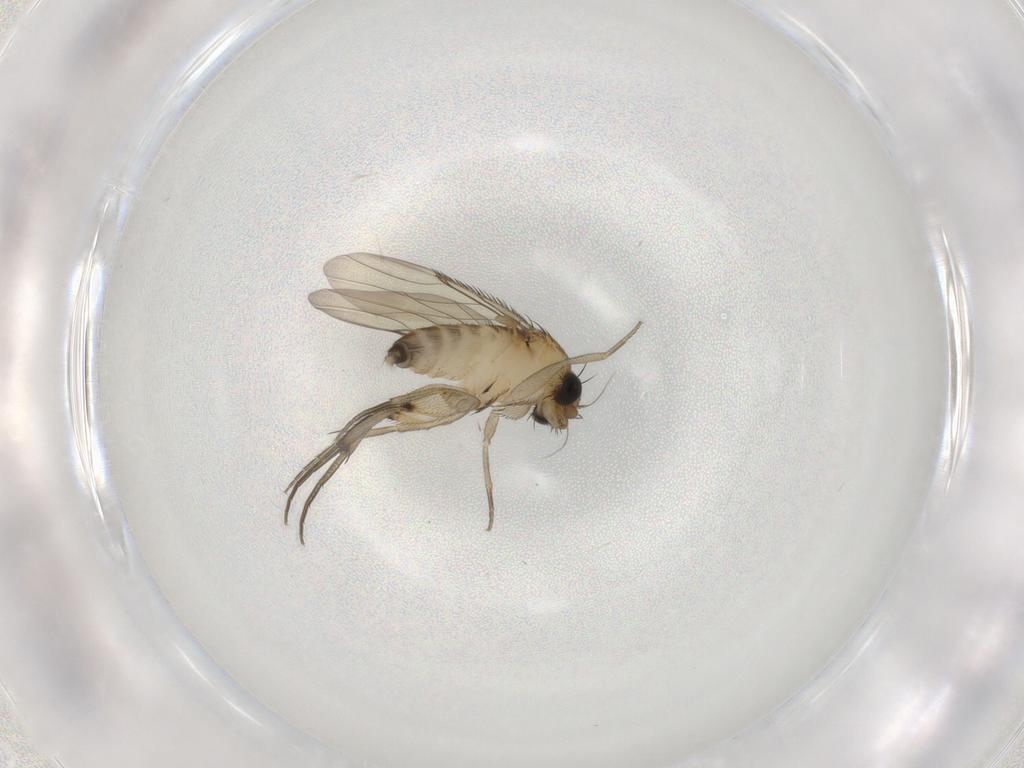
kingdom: Animalia
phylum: Arthropoda
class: Insecta
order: Diptera
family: Phoridae
